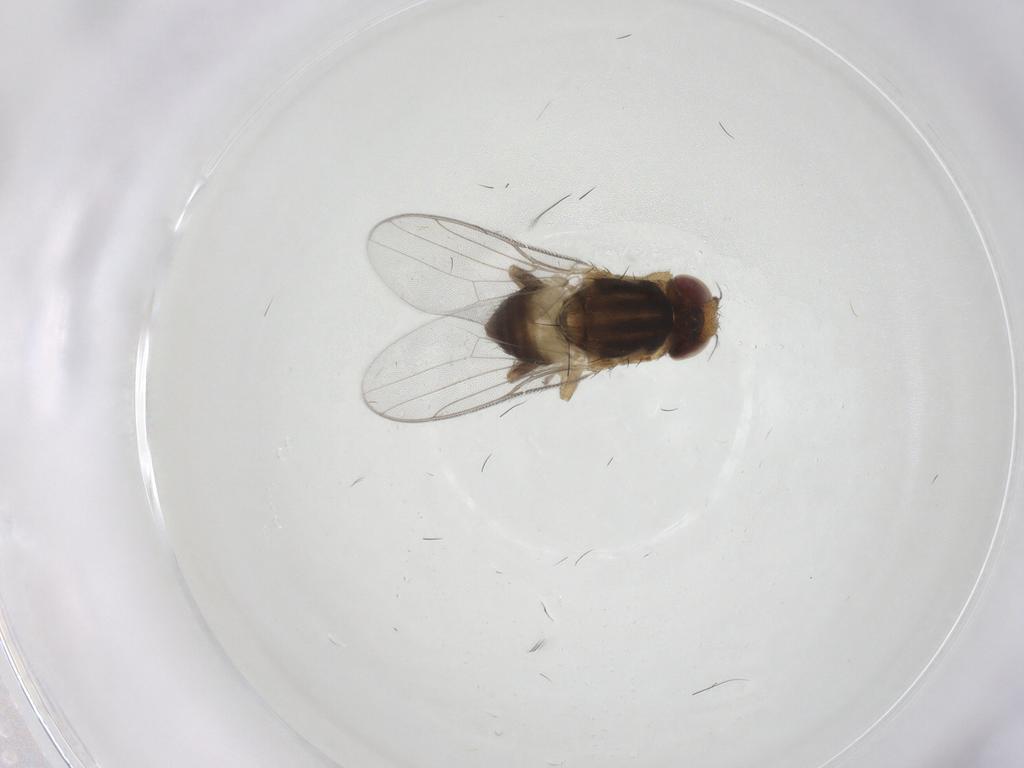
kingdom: Animalia
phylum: Arthropoda
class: Insecta
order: Diptera
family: Chloropidae
